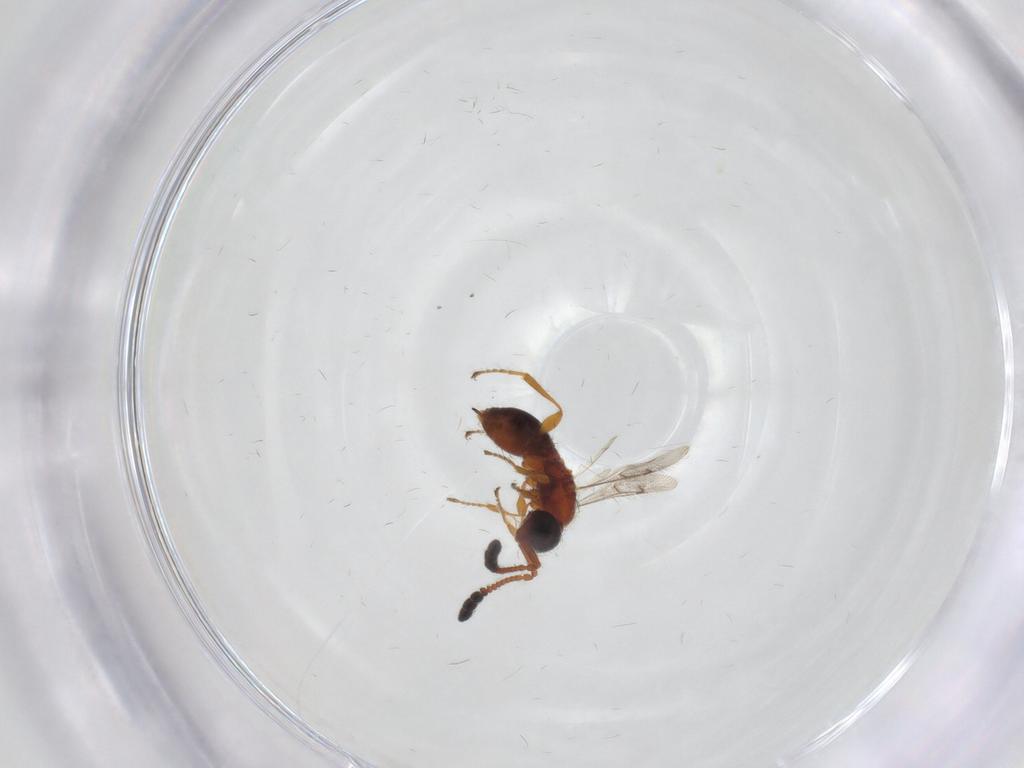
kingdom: Animalia
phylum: Arthropoda
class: Insecta
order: Hymenoptera
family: Diapriidae
